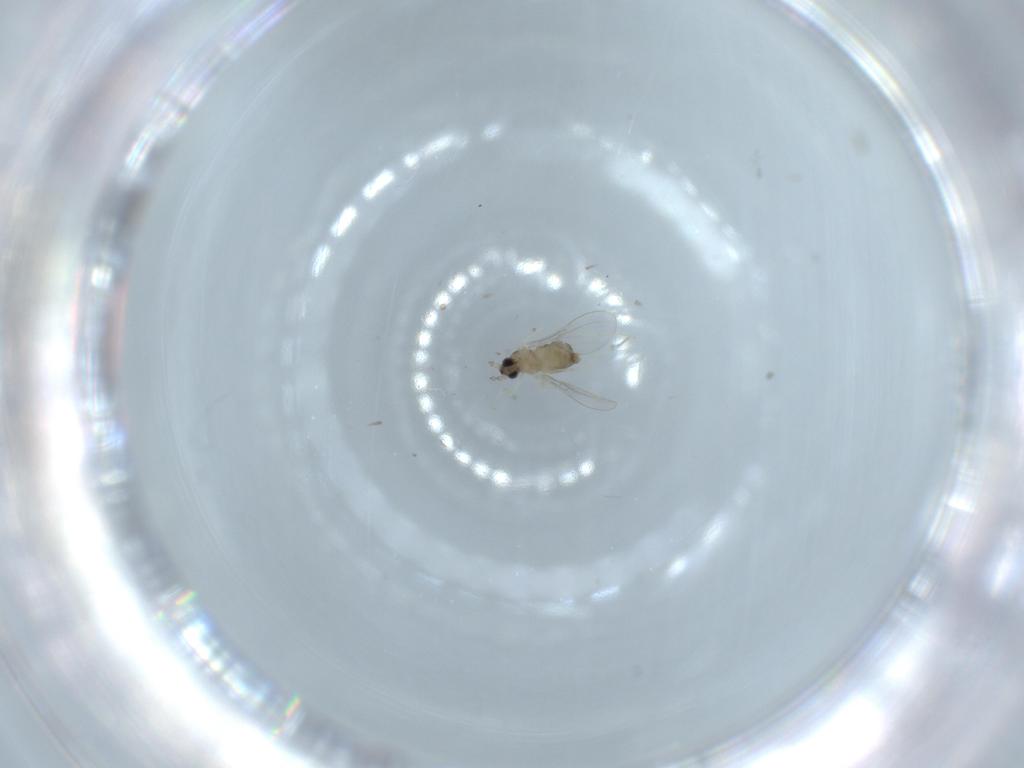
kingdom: Animalia
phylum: Arthropoda
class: Insecta
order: Diptera
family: Cecidomyiidae
